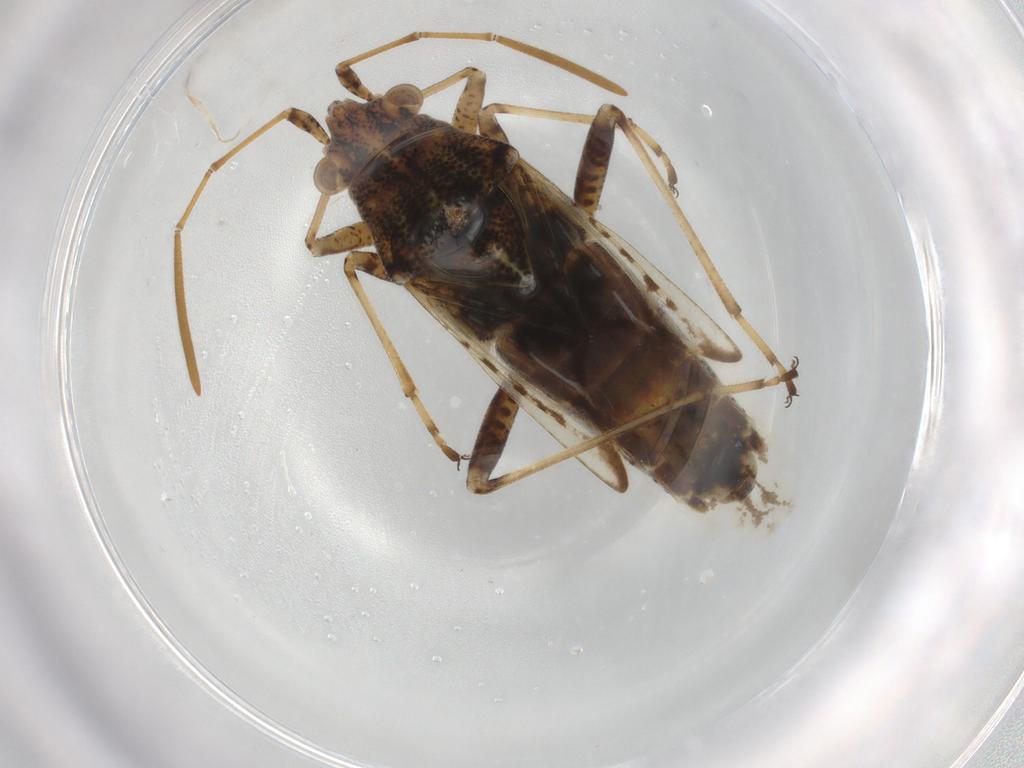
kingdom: Animalia
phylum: Arthropoda
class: Insecta
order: Hemiptera
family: Lygaeidae
